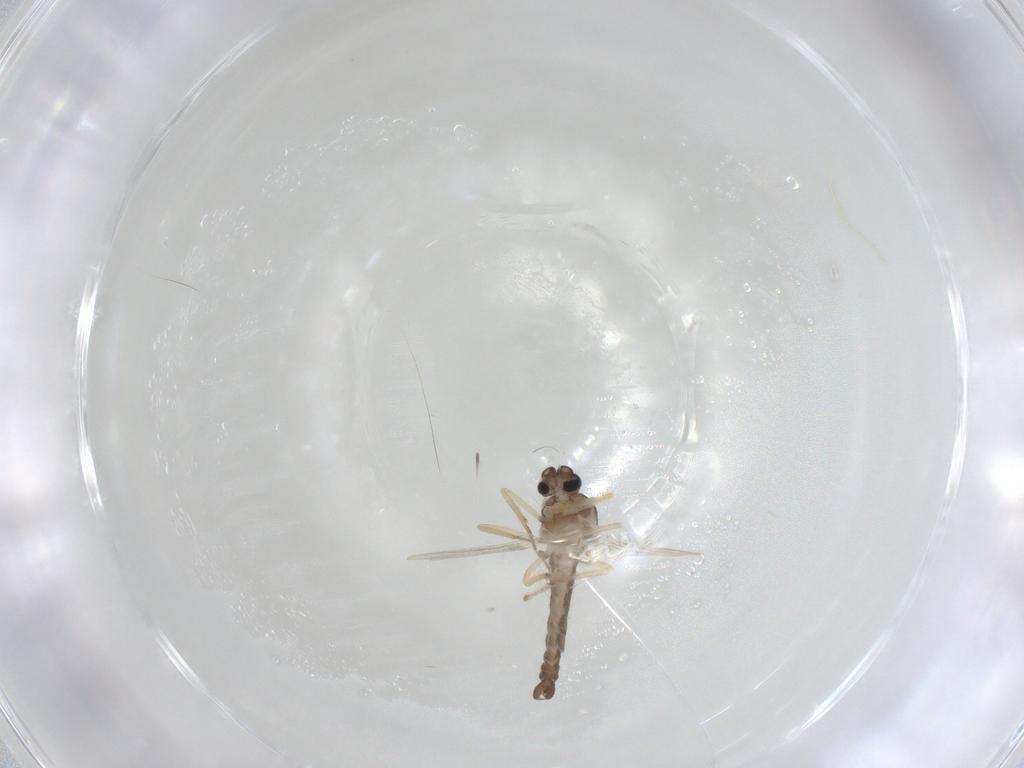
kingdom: Animalia
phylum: Arthropoda
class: Insecta
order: Diptera
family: Ceratopogonidae
